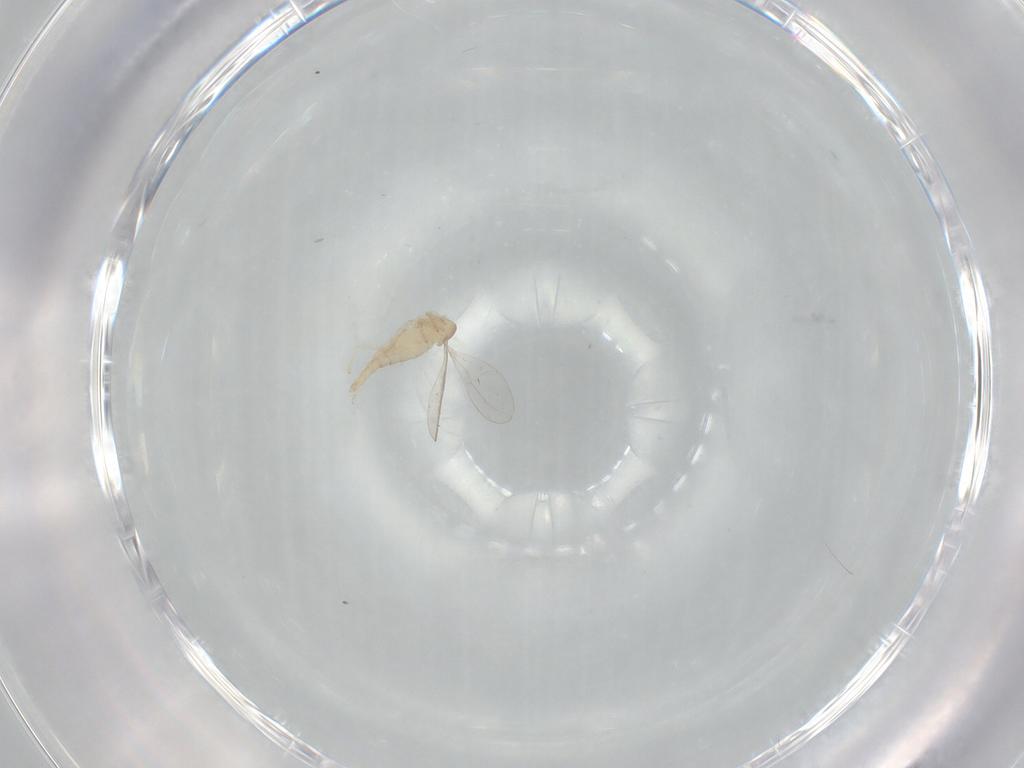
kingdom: Animalia
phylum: Arthropoda
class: Insecta
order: Diptera
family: Cecidomyiidae
